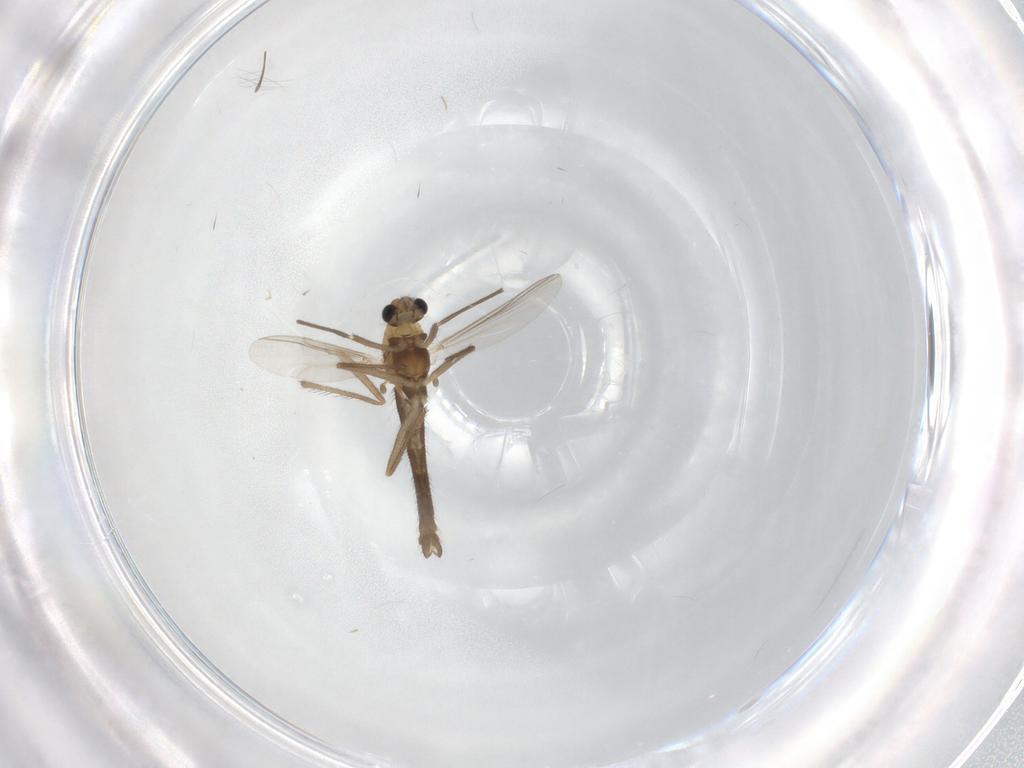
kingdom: Animalia
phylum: Arthropoda
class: Insecta
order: Diptera
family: Chironomidae
